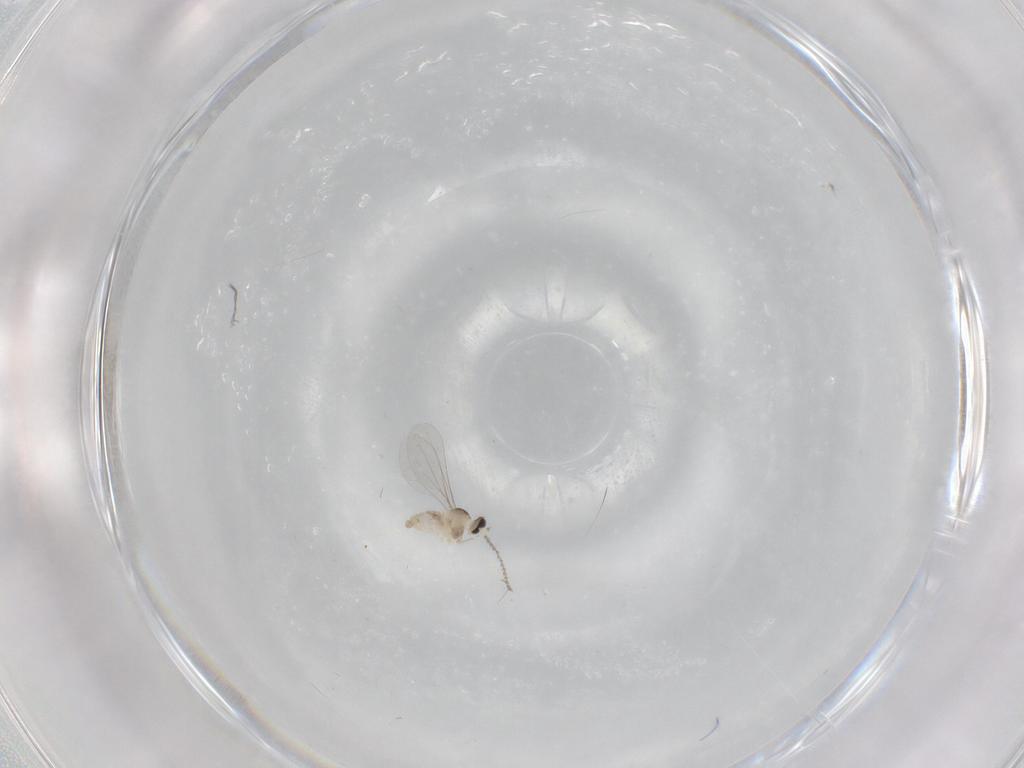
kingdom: Animalia
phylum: Arthropoda
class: Insecta
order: Diptera
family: Cecidomyiidae
